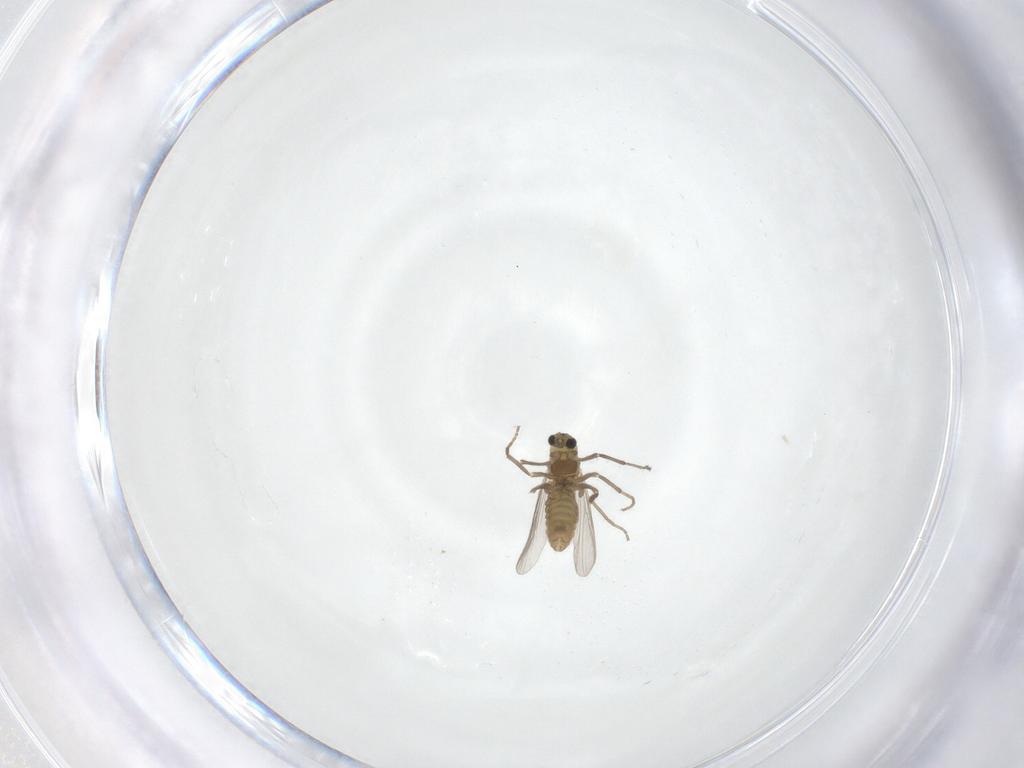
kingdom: Animalia
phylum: Arthropoda
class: Insecta
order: Diptera
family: Chironomidae
